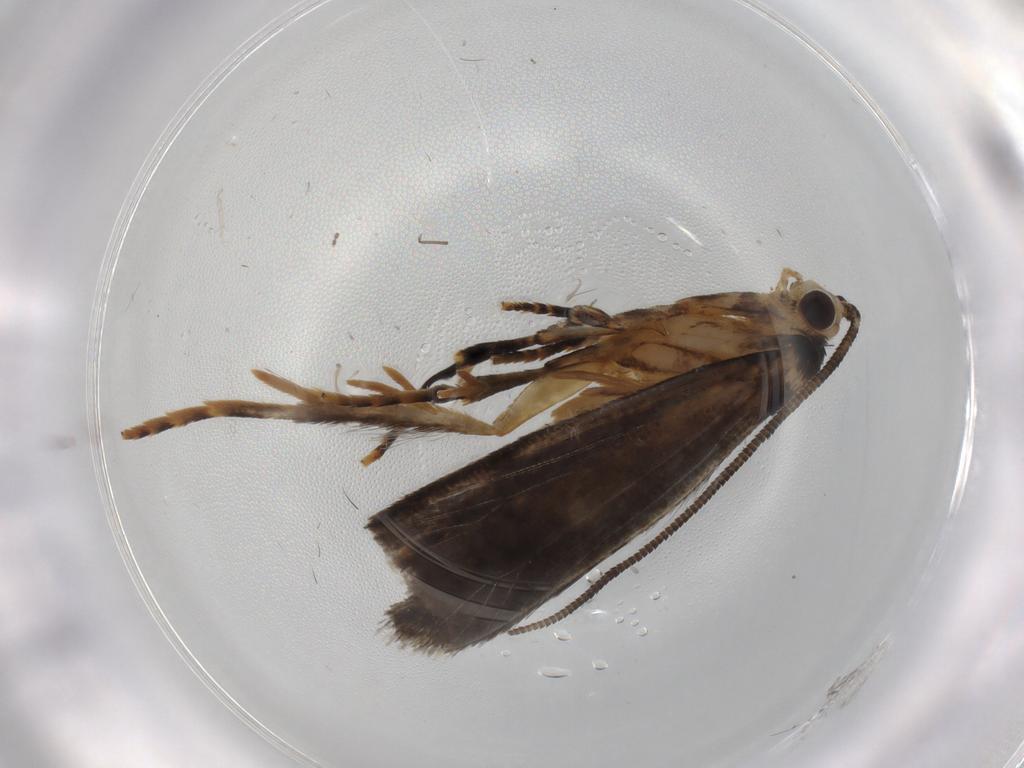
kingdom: Animalia
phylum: Arthropoda
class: Insecta
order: Lepidoptera
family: Tineidae
